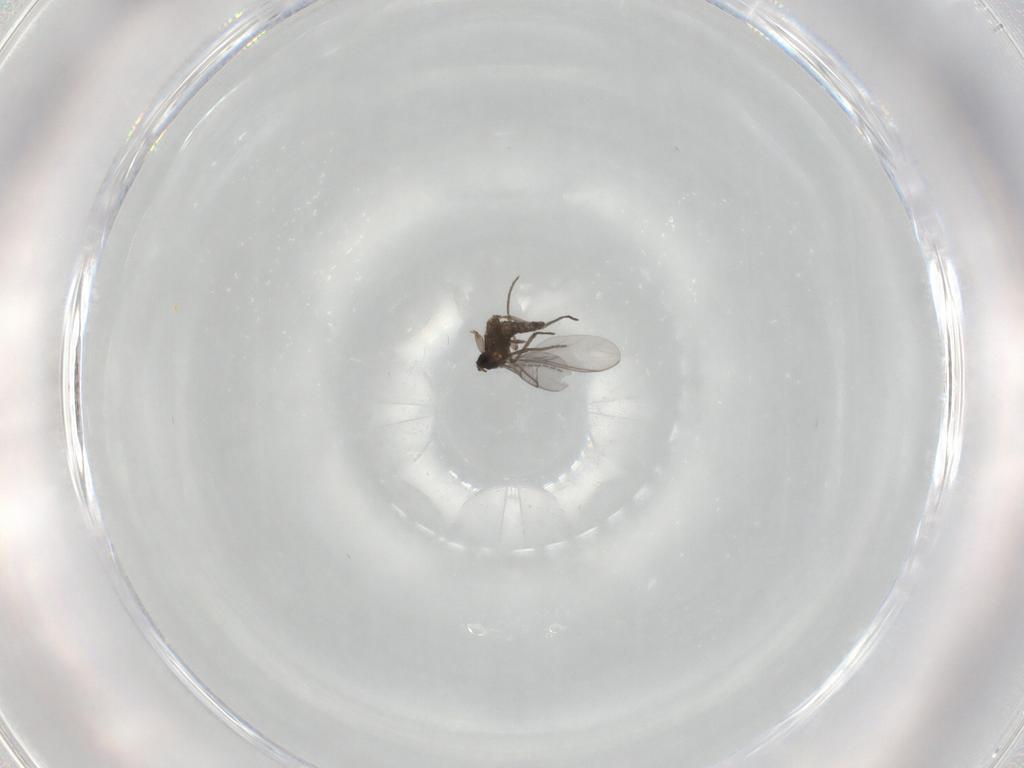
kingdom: Animalia
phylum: Arthropoda
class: Insecta
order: Diptera
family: Sciaridae
